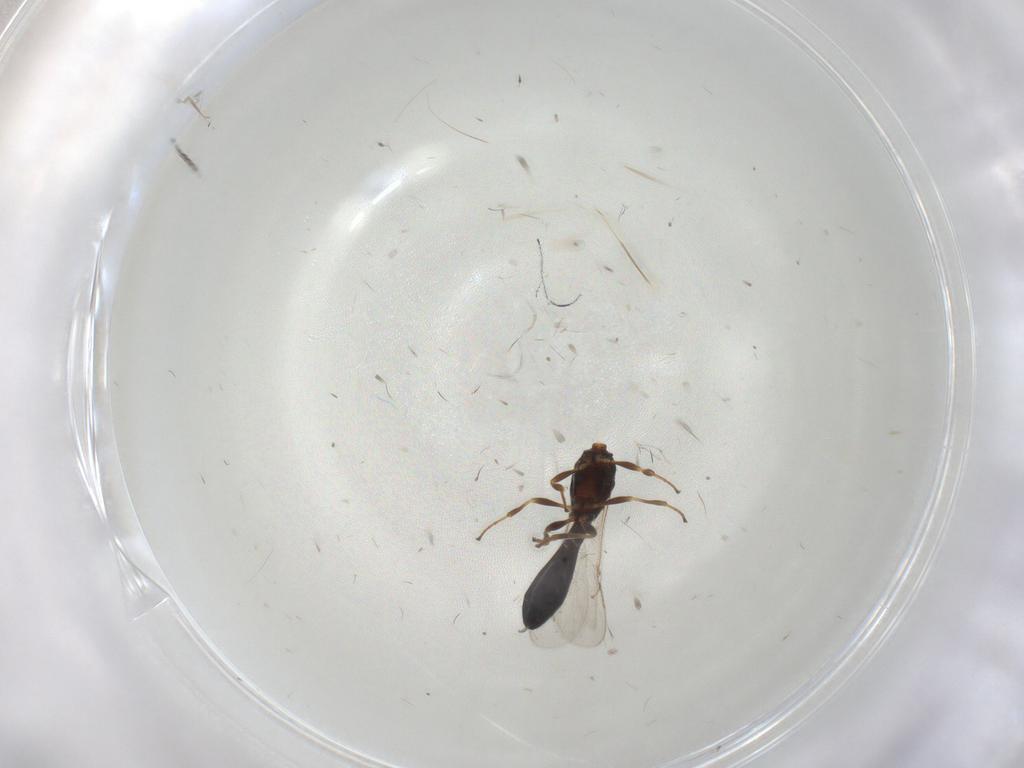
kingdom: Animalia
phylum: Arthropoda
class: Insecta
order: Hymenoptera
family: Scelionidae
